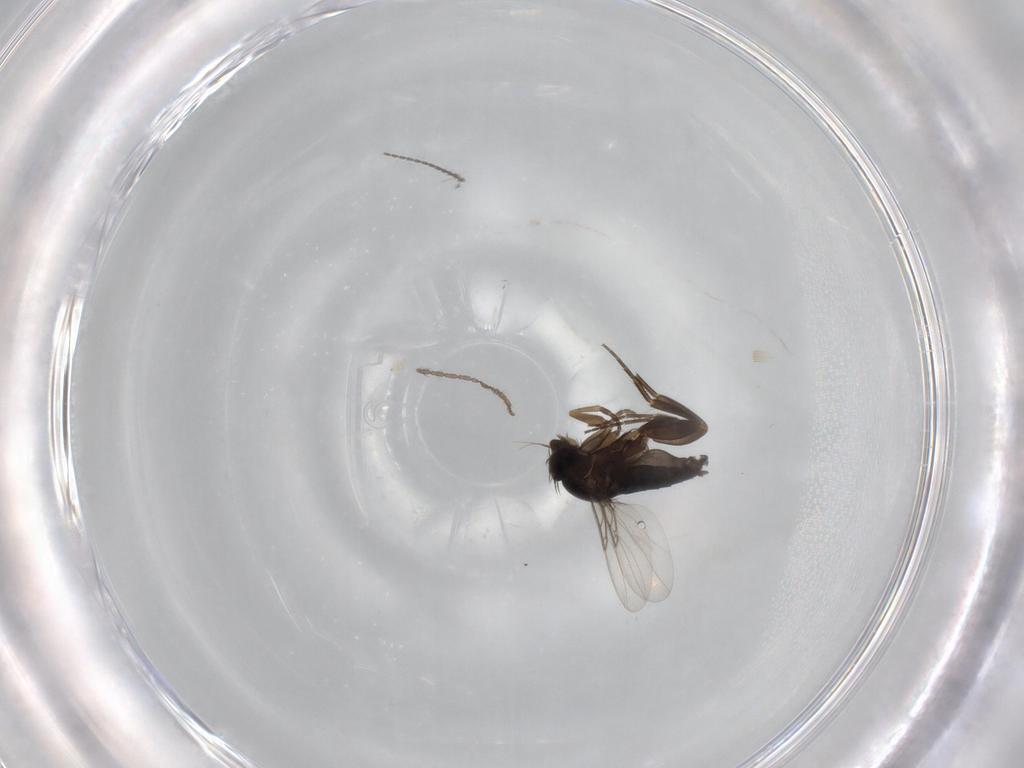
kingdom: Animalia
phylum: Arthropoda
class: Insecta
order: Diptera
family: Phoridae
